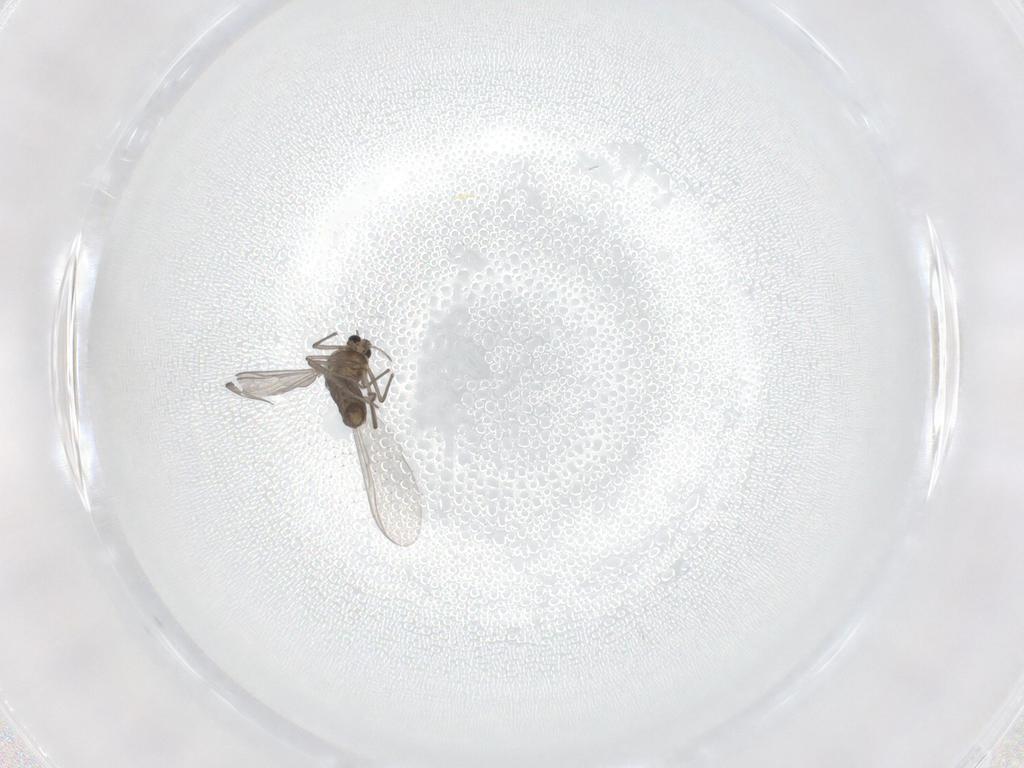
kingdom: Animalia
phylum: Arthropoda
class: Insecta
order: Diptera
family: Chironomidae
